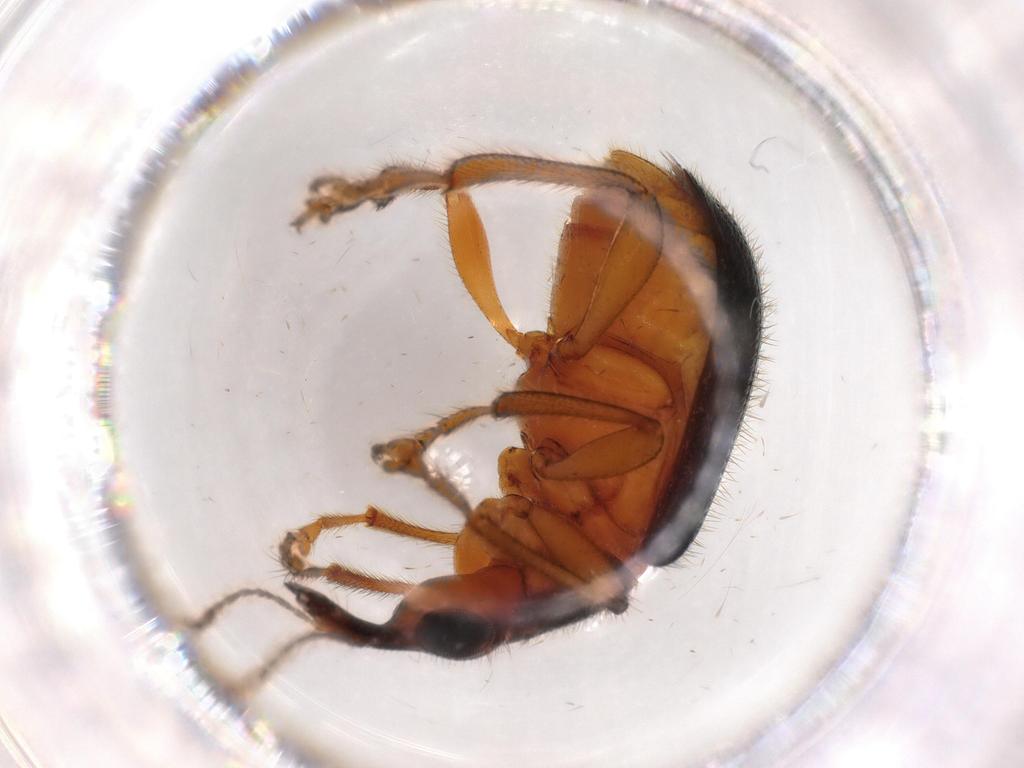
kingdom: Animalia
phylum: Arthropoda
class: Insecta
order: Coleoptera
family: Attelabidae
